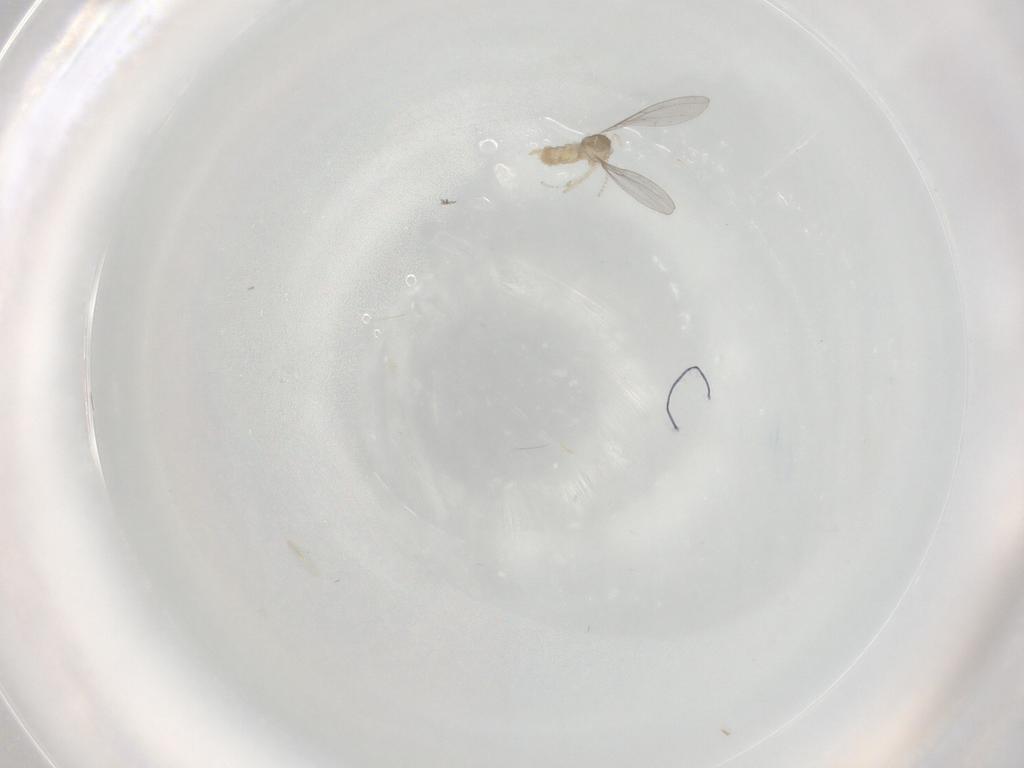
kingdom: Animalia
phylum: Arthropoda
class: Insecta
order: Diptera
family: Cecidomyiidae
